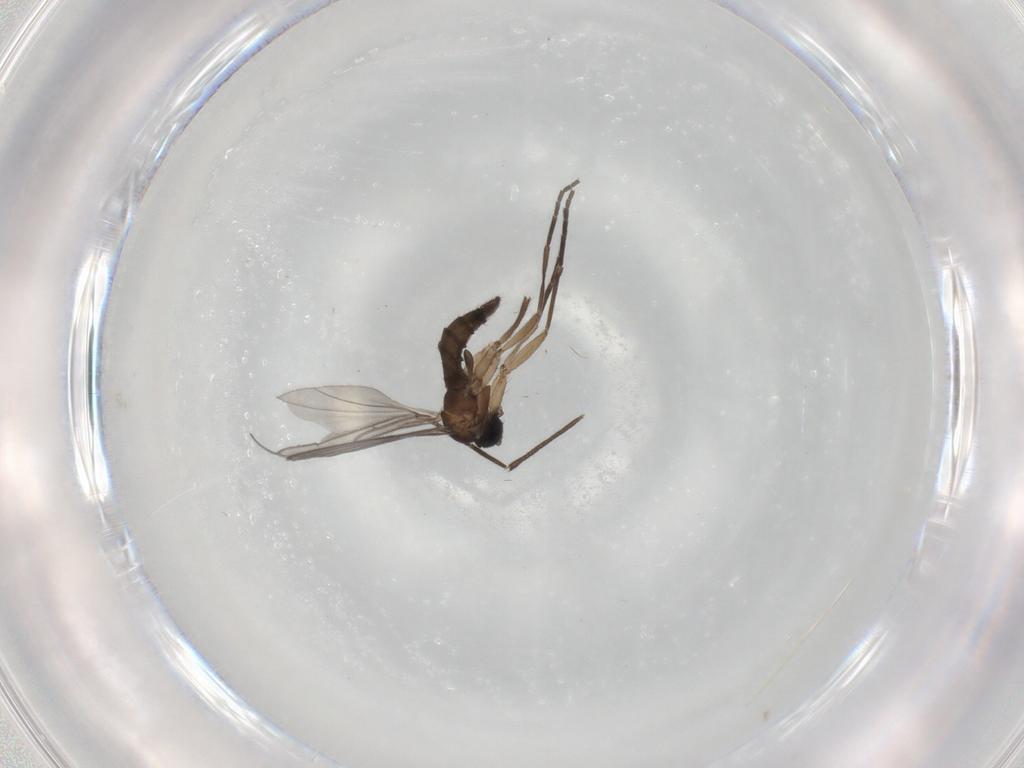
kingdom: Animalia
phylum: Arthropoda
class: Insecta
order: Diptera
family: Sciaridae
